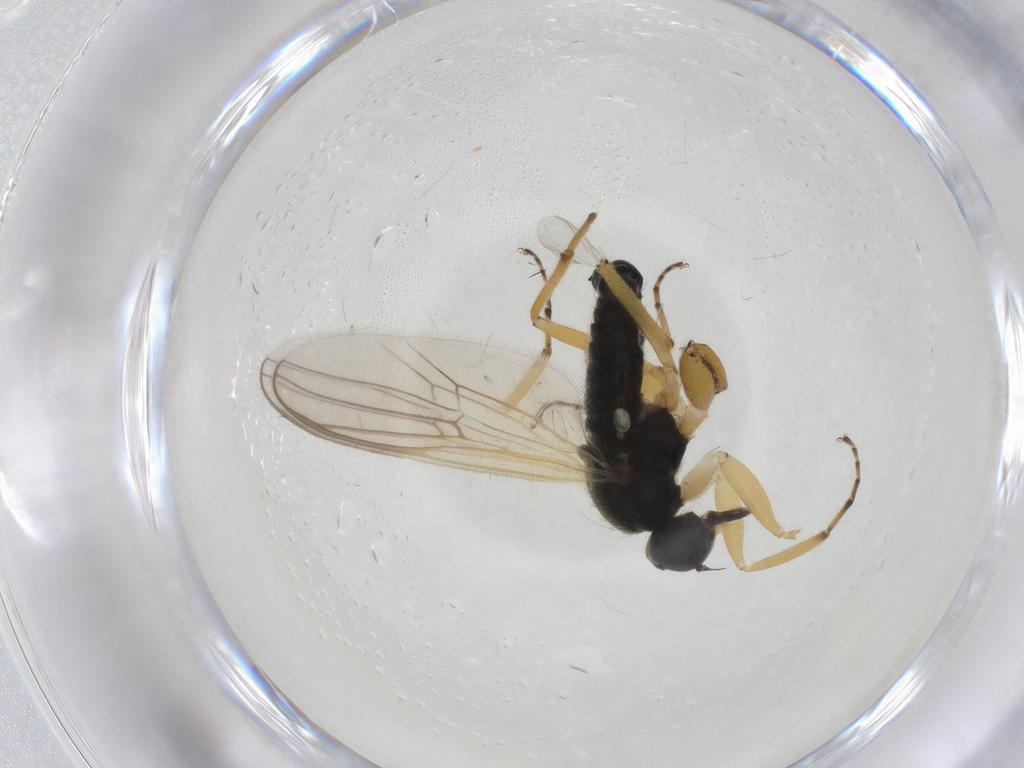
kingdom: Animalia
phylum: Arthropoda
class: Insecta
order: Diptera
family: Hybotidae
